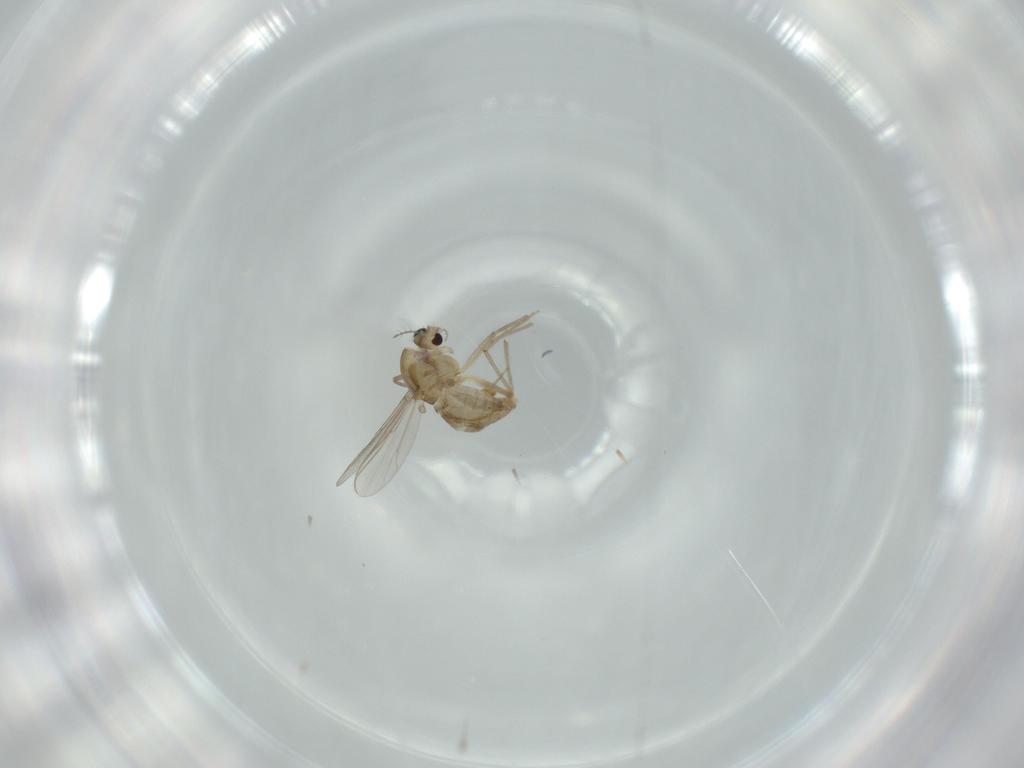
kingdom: Animalia
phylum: Arthropoda
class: Insecta
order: Diptera
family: Chironomidae
